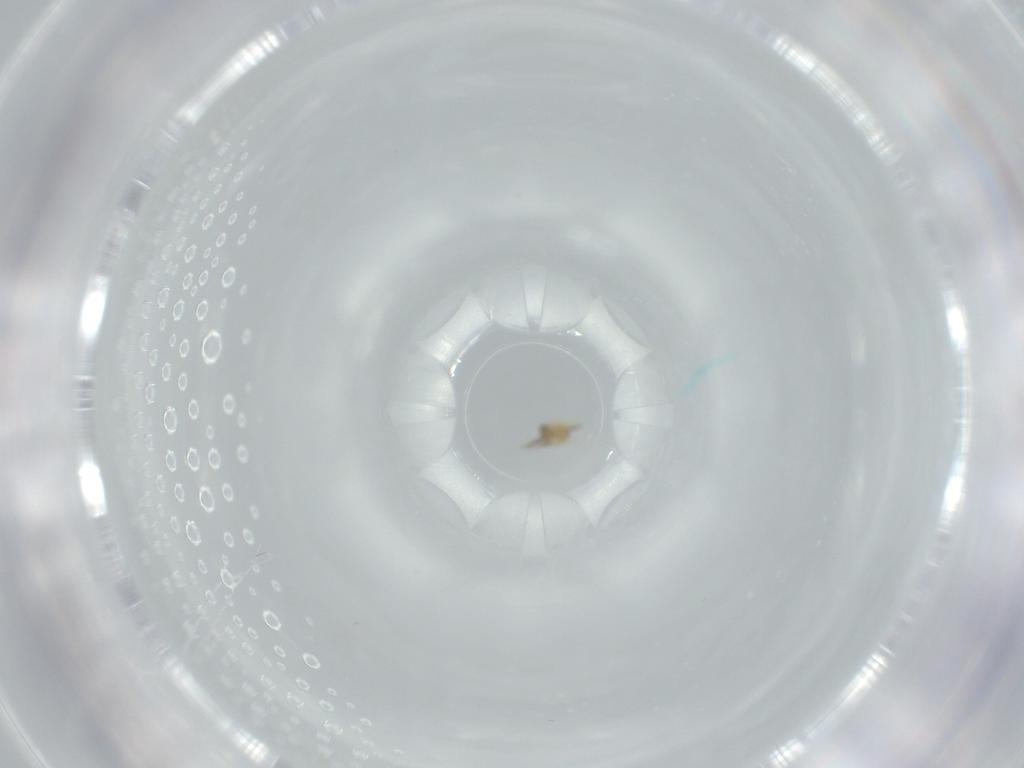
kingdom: Animalia
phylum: Arthropoda
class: Insecta
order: Diptera
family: Chironomidae
